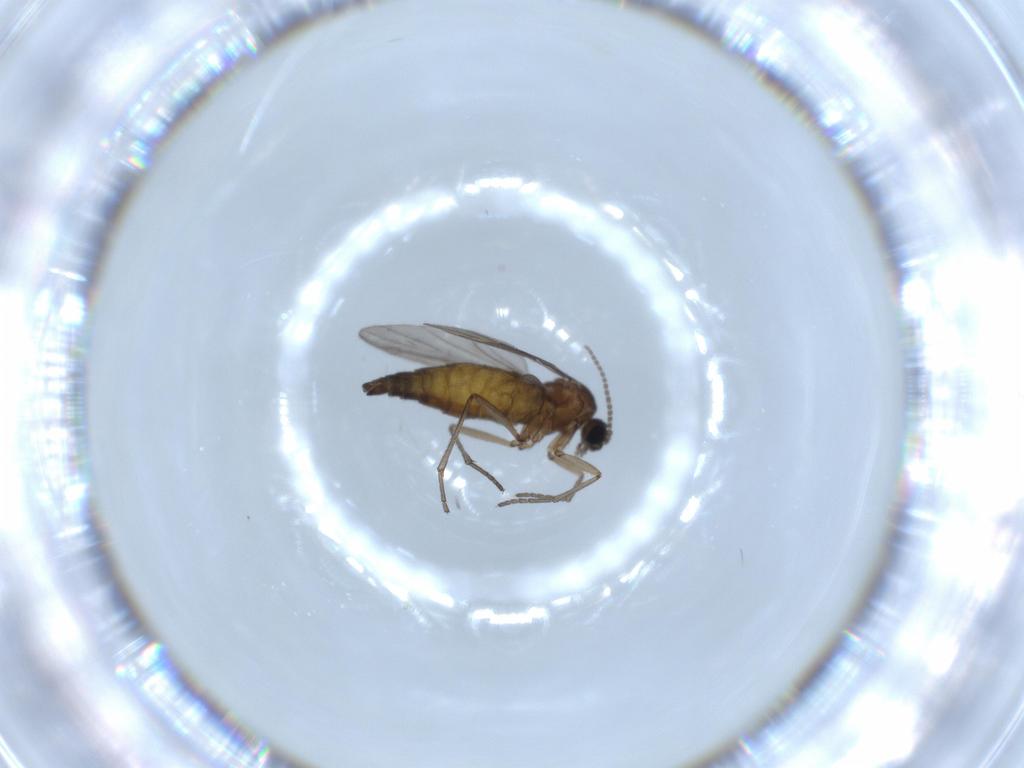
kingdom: Animalia
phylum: Arthropoda
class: Insecta
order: Diptera
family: Sciaridae
